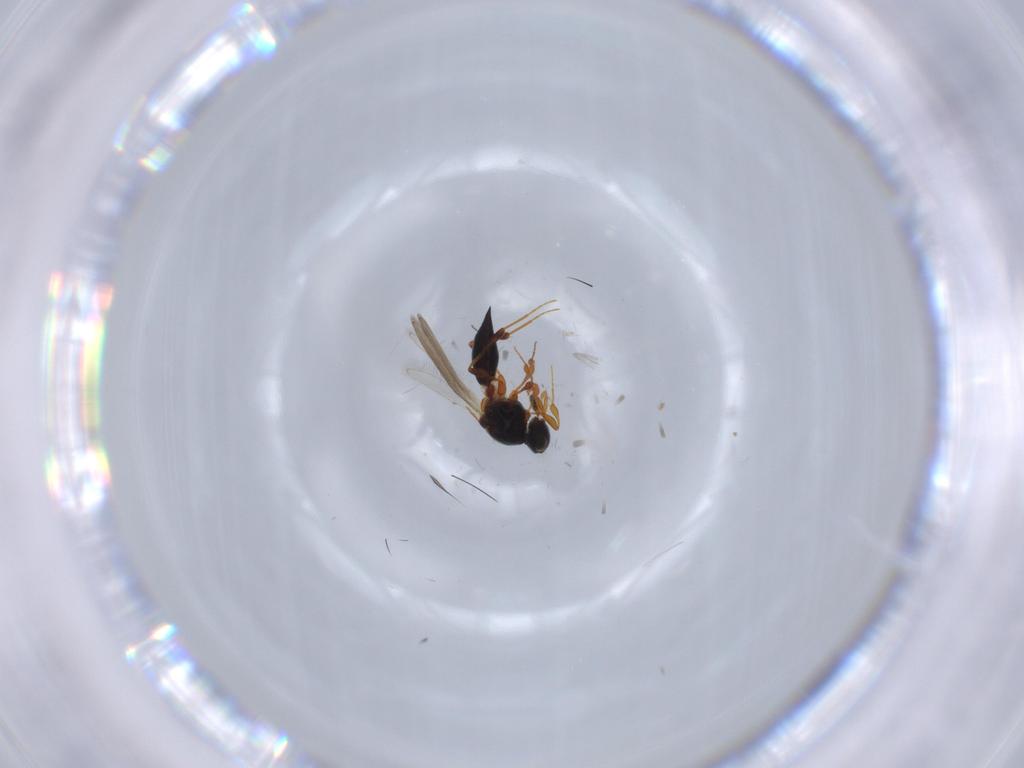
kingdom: Animalia
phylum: Arthropoda
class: Insecta
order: Hymenoptera
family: Platygastridae
